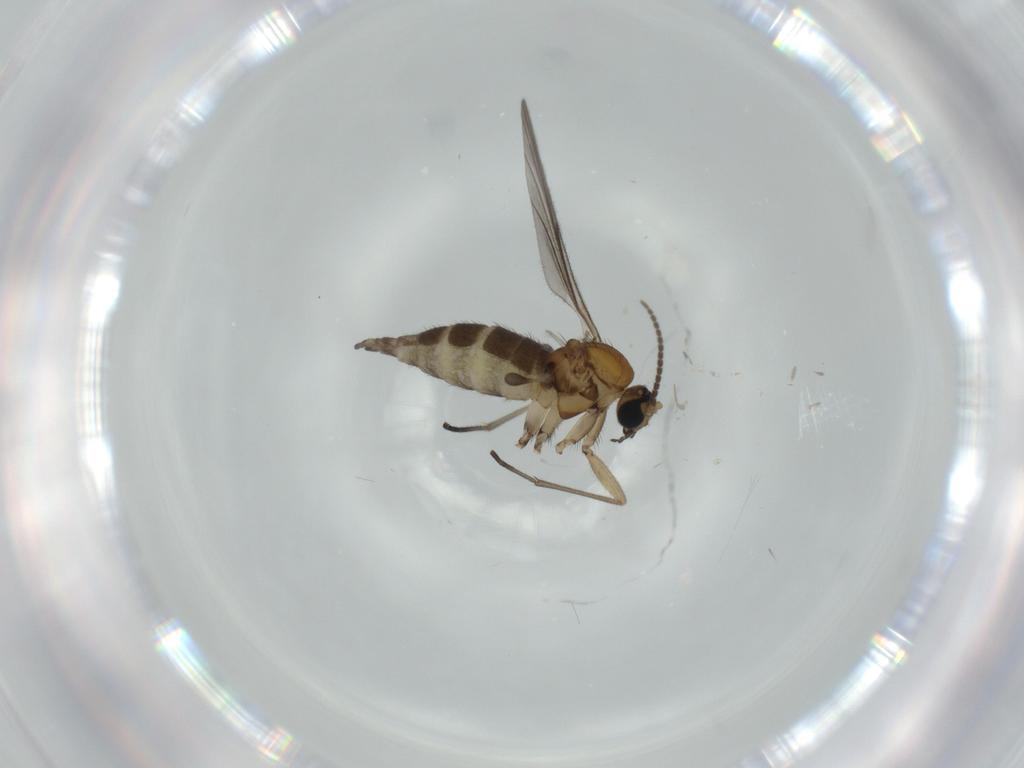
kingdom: Animalia
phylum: Arthropoda
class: Insecta
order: Diptera
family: Sciaridae
